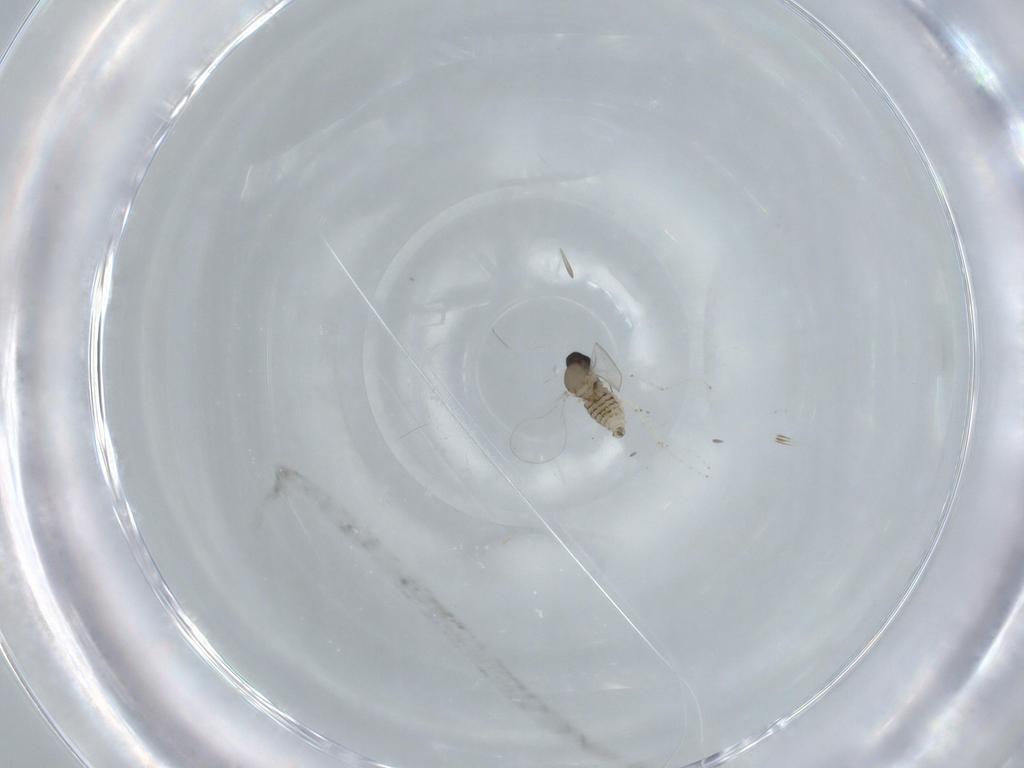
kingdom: Animalia
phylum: Arthropoda
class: Insecta
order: Diptera
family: Cecidomyiidae
